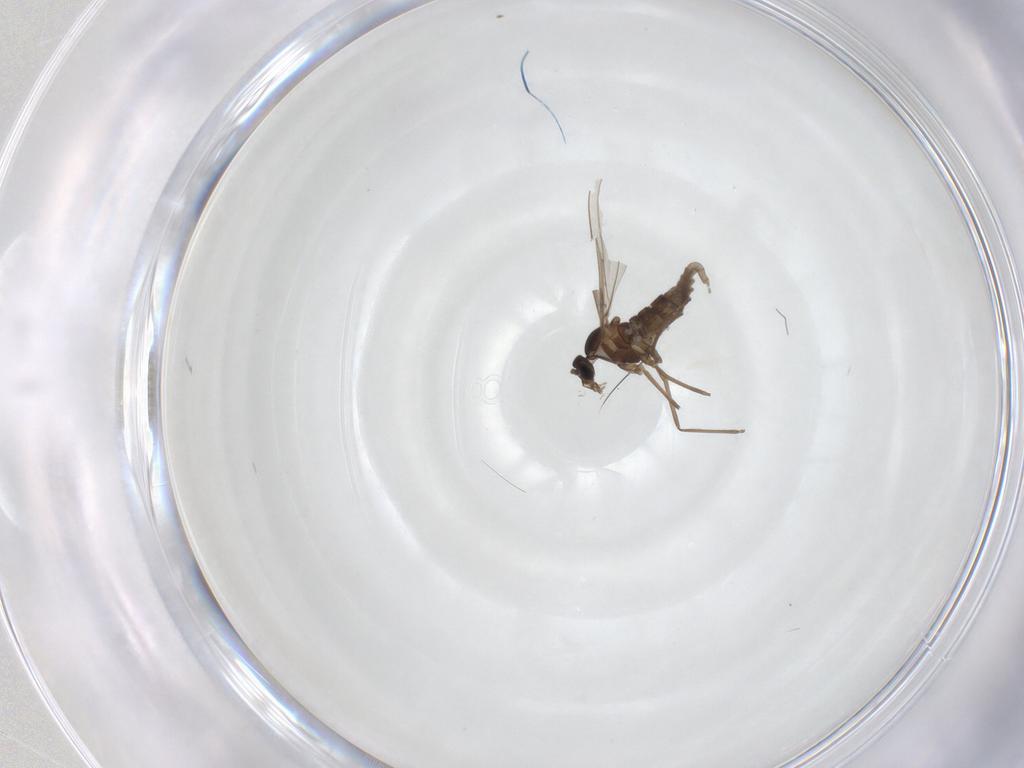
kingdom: Animalia
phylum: Arthropoda
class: Insecta
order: Diptera
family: Cecidomyiidae
